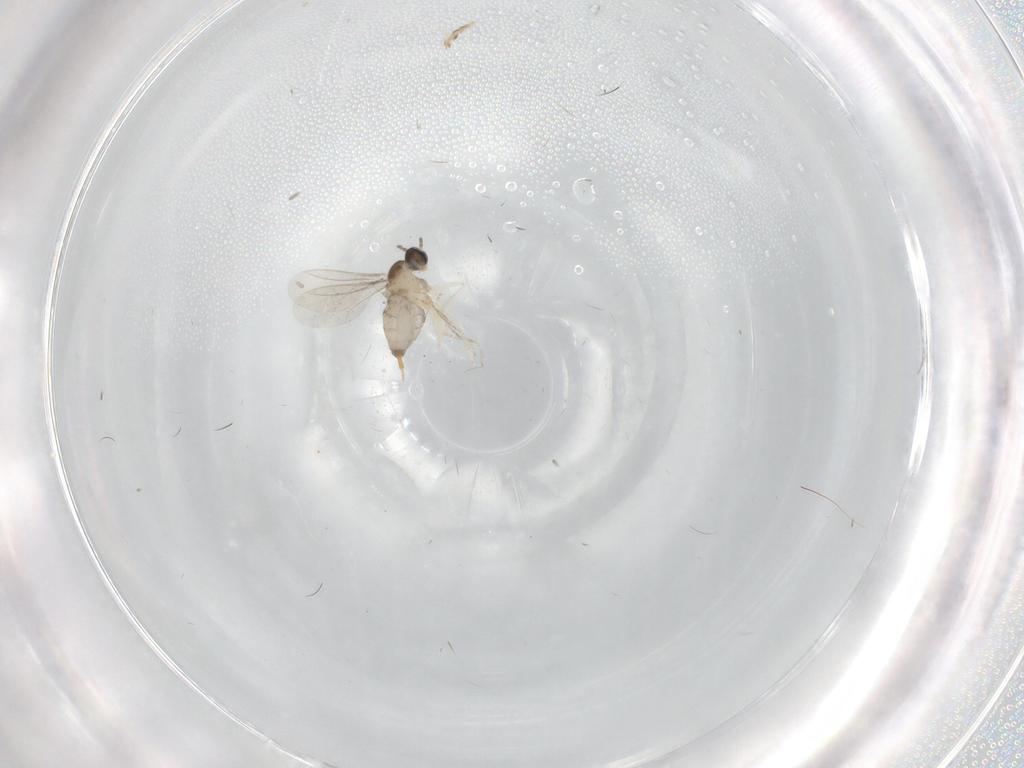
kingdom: Animalia
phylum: Arthropoda
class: Insecta
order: Diptera
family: Cecidomyiidae
